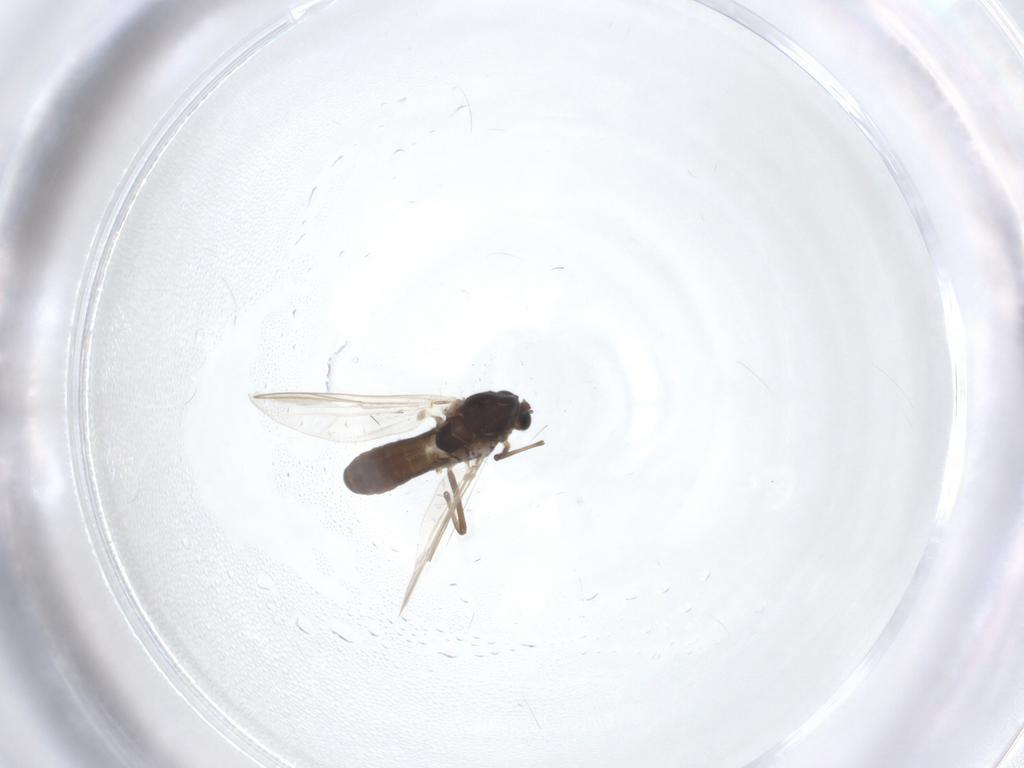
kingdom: Animalia
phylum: Arthropoda
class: Insecta
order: Diptera
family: Chironomidae
